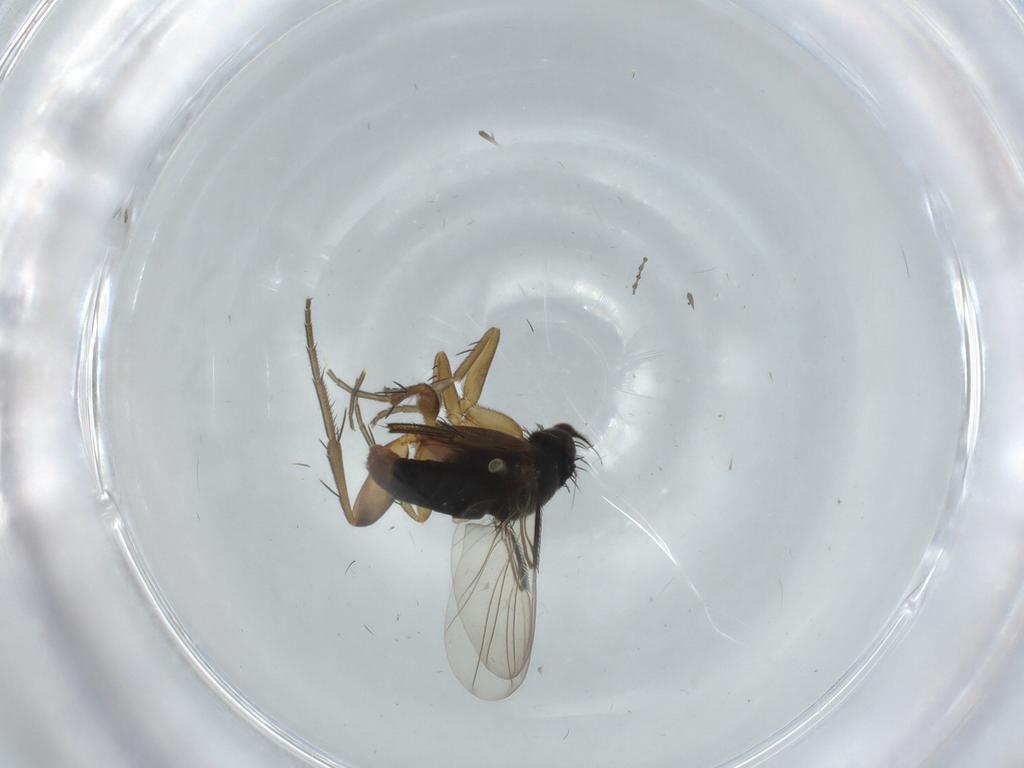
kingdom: Animalia
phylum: Arthropoda
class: Insecta
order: Diptera
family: Phoridae
